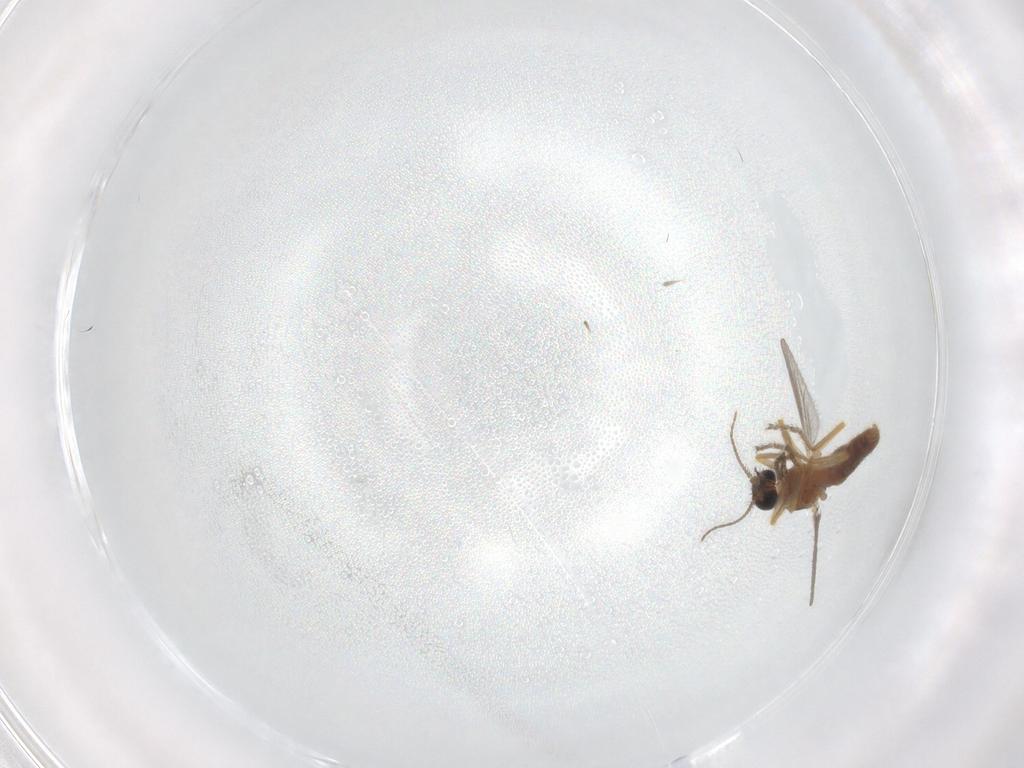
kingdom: Animalia
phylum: Arthropoda
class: Insecta
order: Diptera
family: Ceratopogonidae
